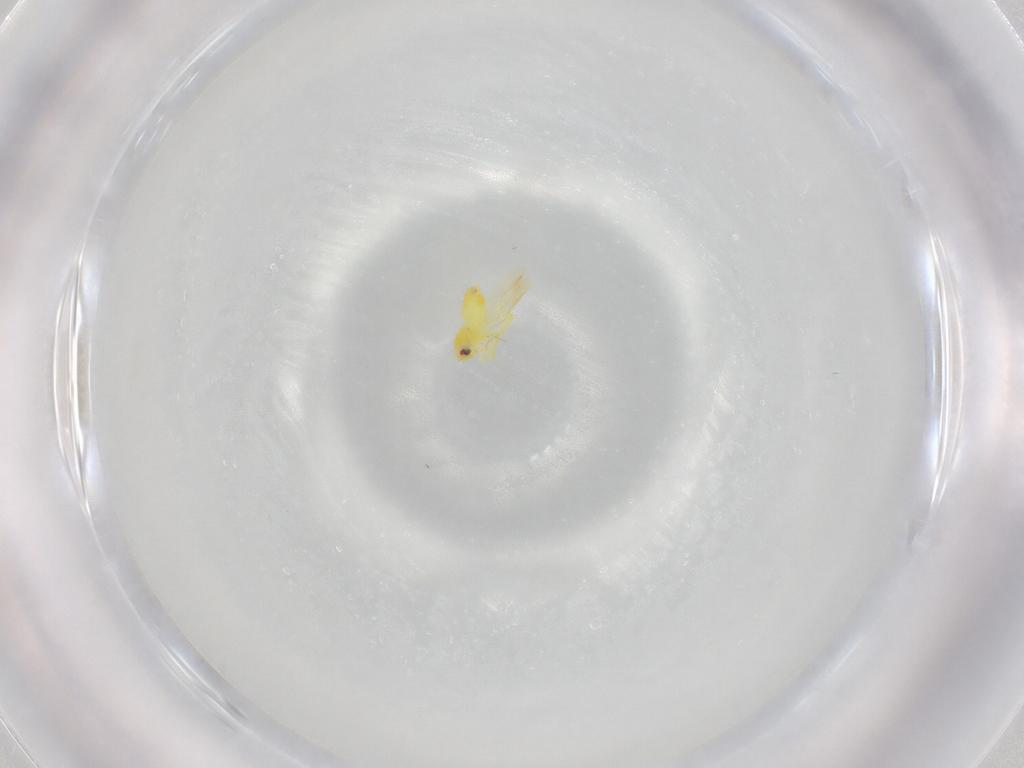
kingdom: Animalia
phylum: Arthropoda
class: Insecta
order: Hemiptera
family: Aleyrodidae
